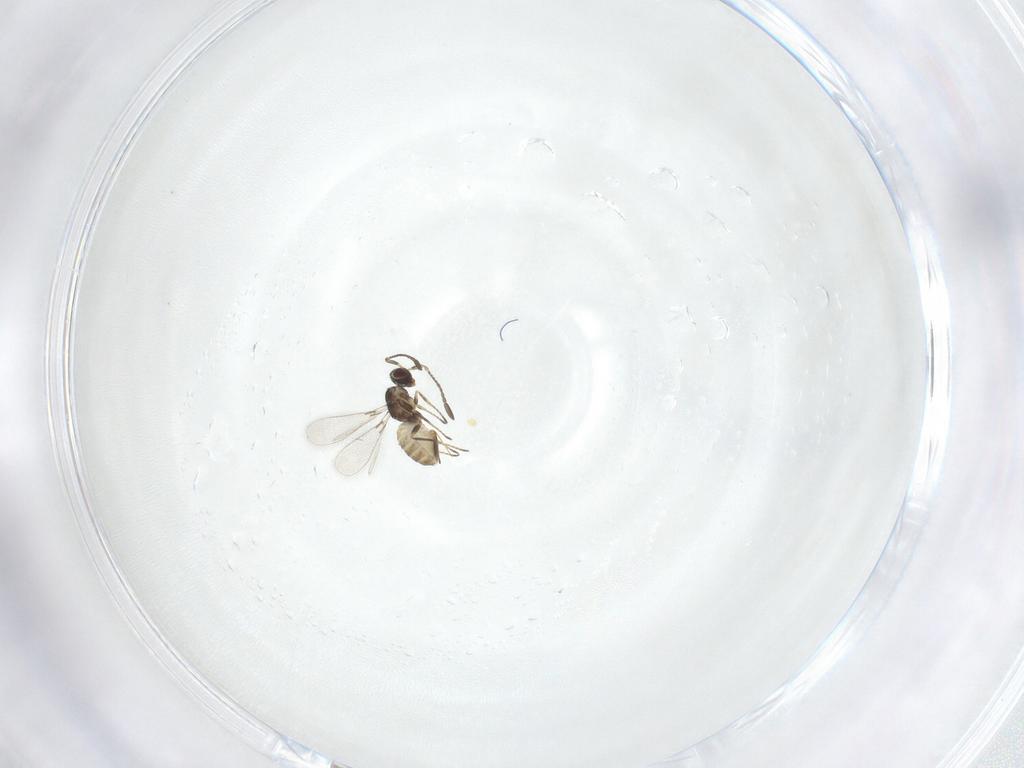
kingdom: Animalia
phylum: Arthropoda
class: Insecta
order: Hymenoptera
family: Mymaridae
